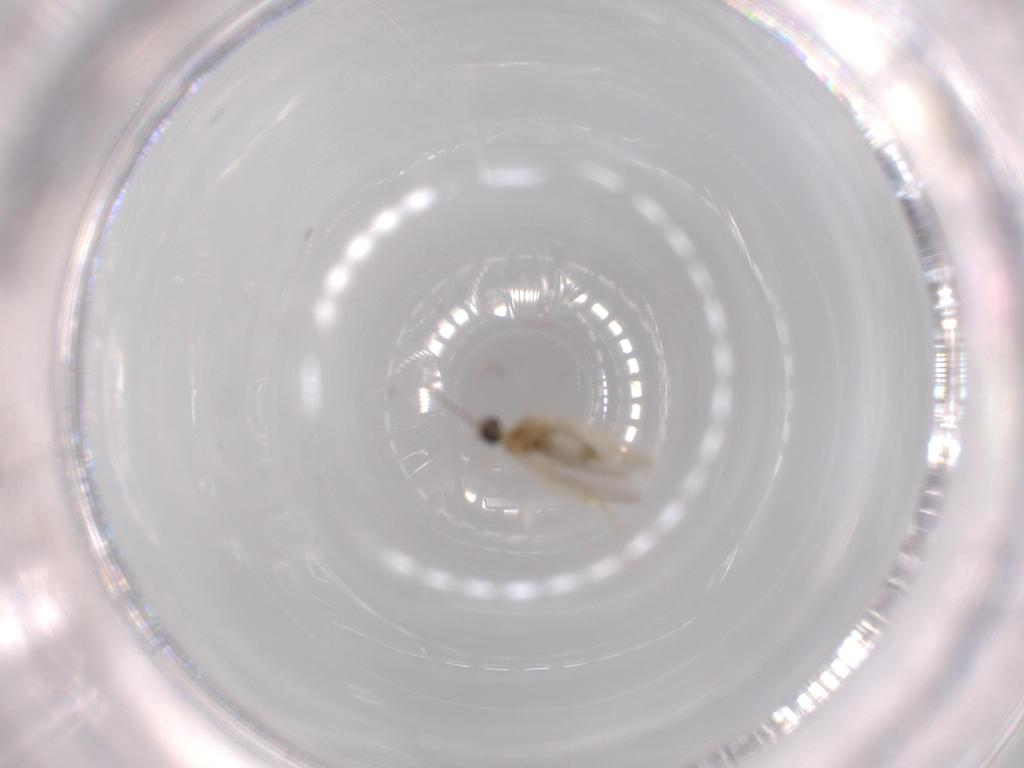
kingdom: Animalia
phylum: Arthropoda
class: Insecta
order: Diptera
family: Sciaridae
